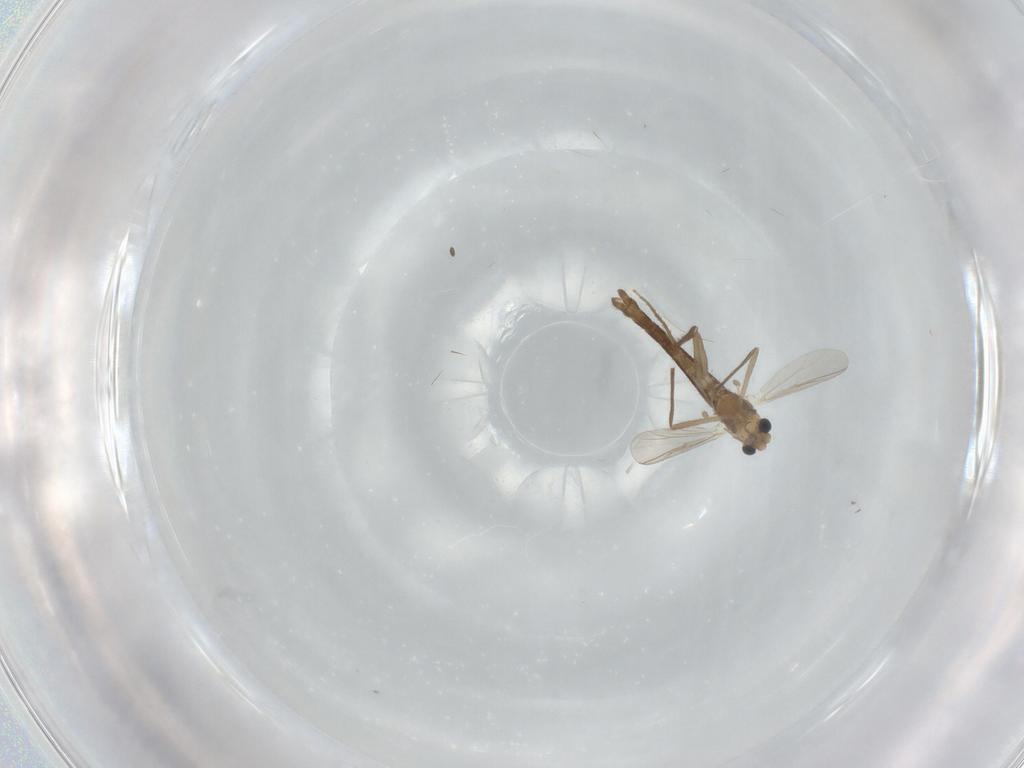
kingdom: Animalia
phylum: Arthropoda
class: Insecta
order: Diptera
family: Chironomidae
